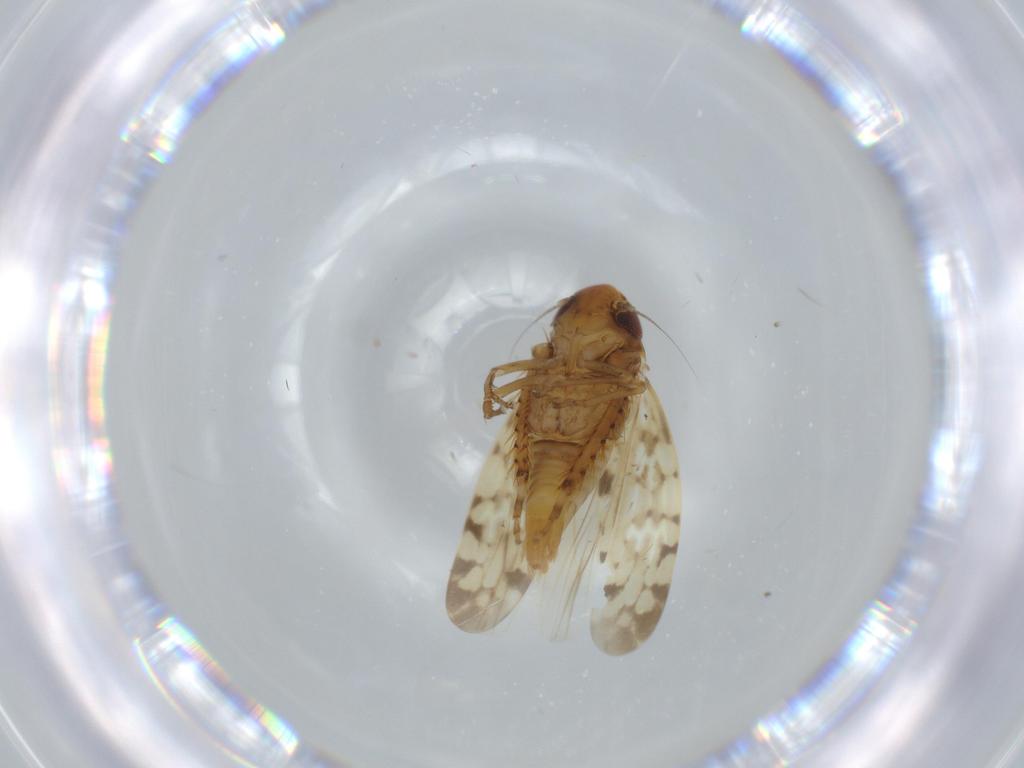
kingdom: Animalia
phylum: Arthropoda
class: Insecta
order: Hemiptera
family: Cicadellidae
